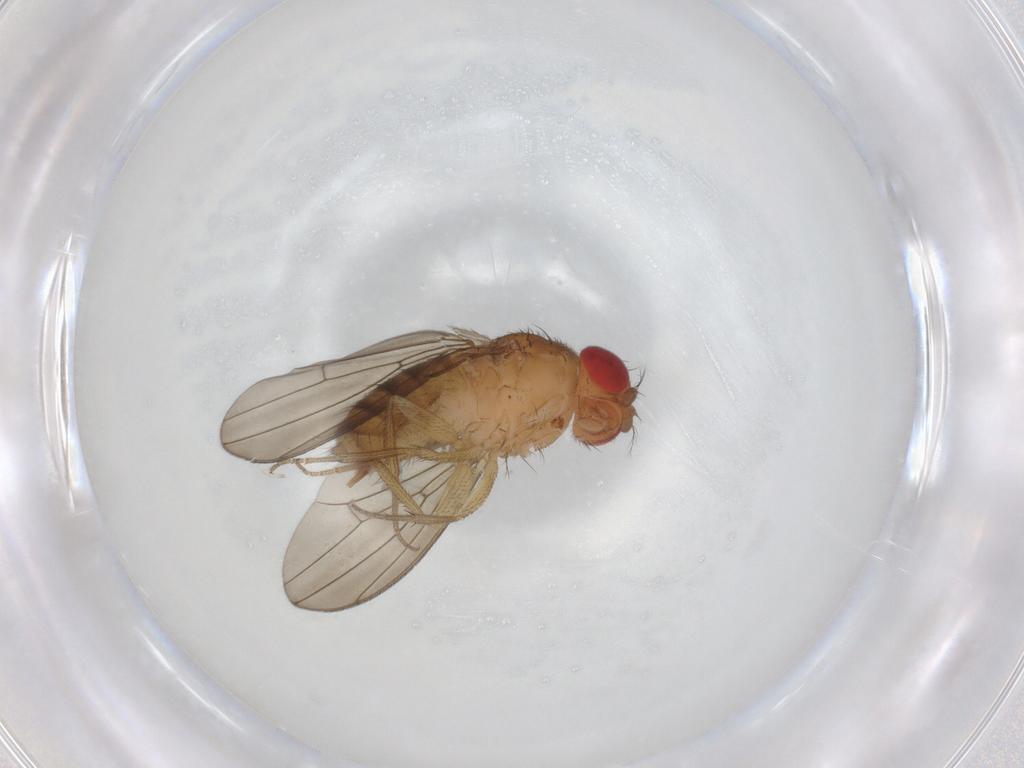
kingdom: Animalia
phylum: Arthropoda
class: Insecta
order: Diptera
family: Drosophilidae
